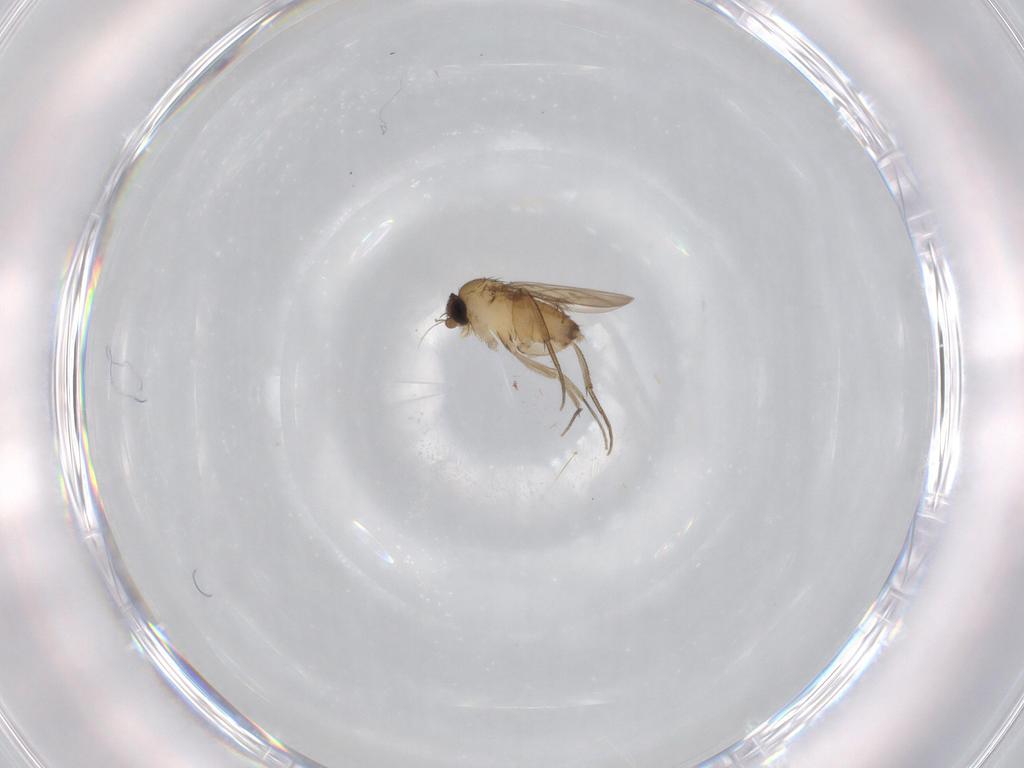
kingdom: Animalia
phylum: Arthropoda
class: Insecta
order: Diptera
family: Phoridae
